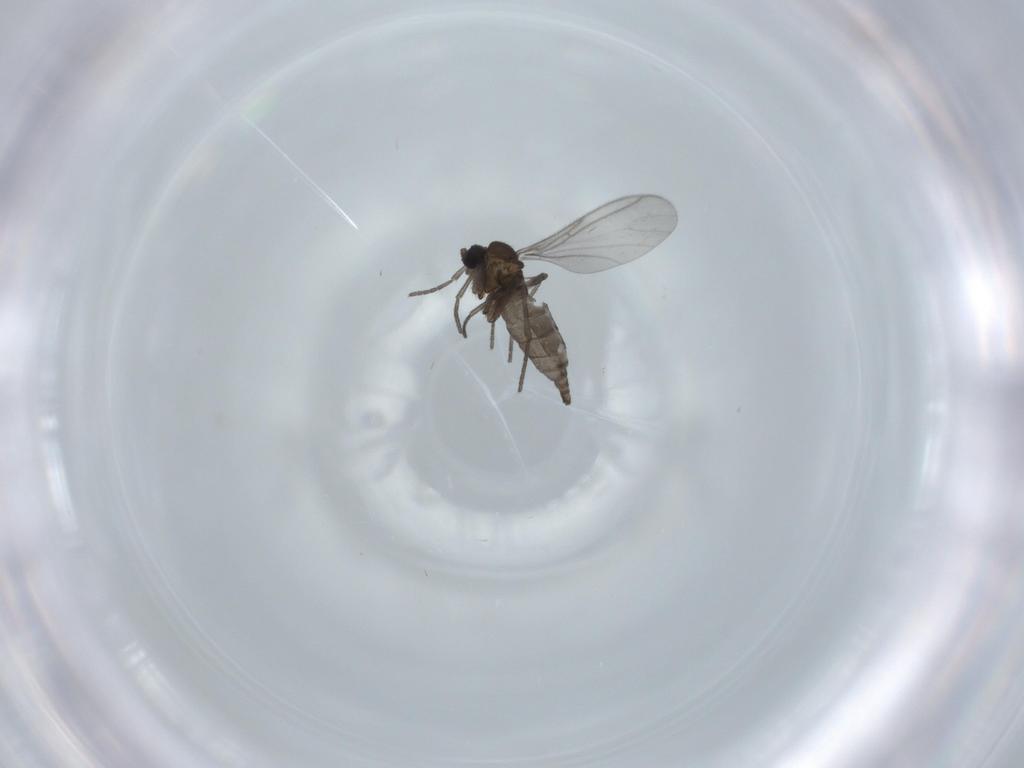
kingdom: Animalia
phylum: Arthropoda
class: Insecta
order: Diptera
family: Sciaridae
